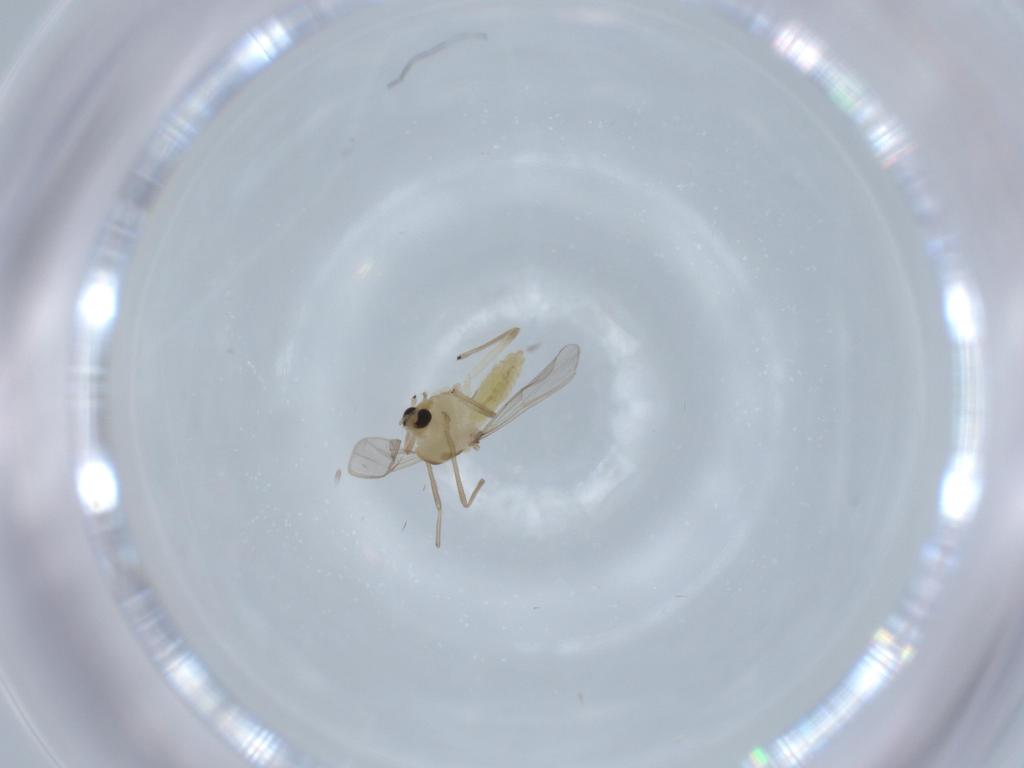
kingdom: Animalia
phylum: Arthropoda
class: Insecta
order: Diptera
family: Chironomidae
